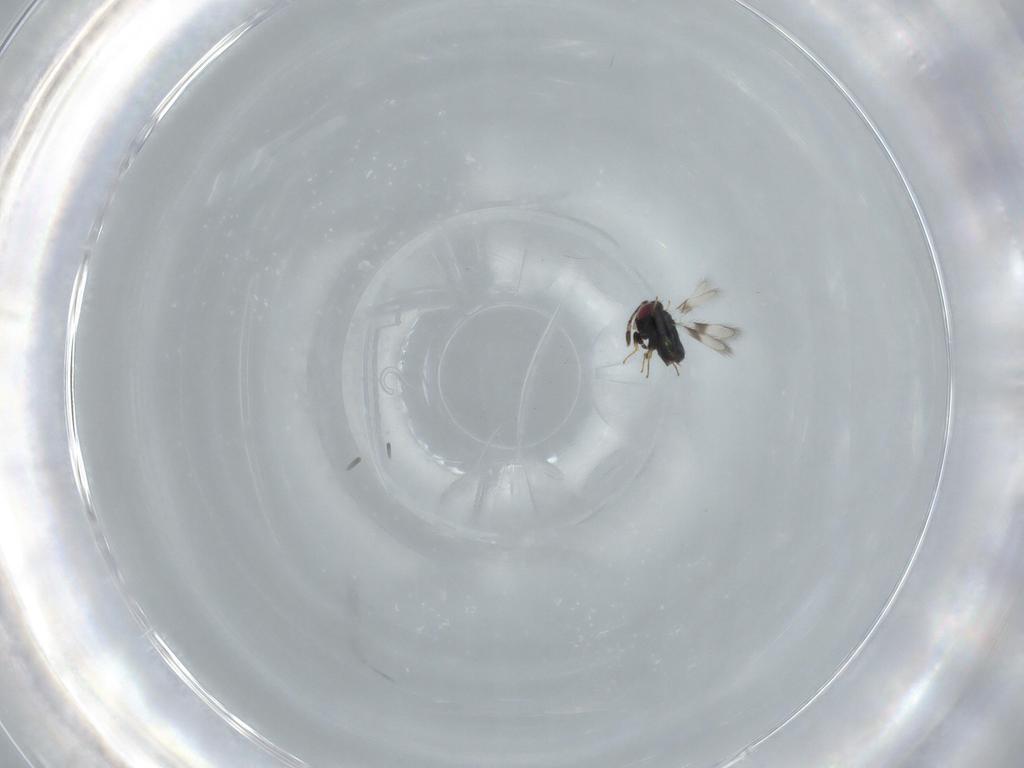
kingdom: Animalia
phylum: Arthropoda
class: Insecta
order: Hymenoptera
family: Azotidae
